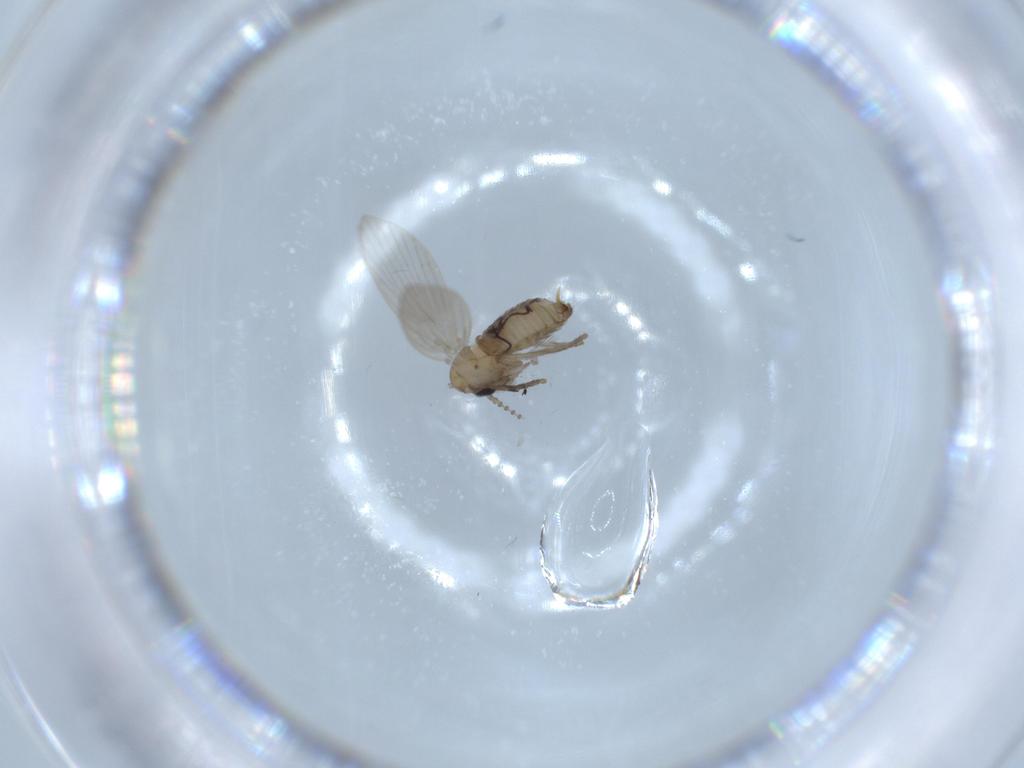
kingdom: Animalia
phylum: Arthropoda
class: Insecta
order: Diptera
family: Psychodidae
